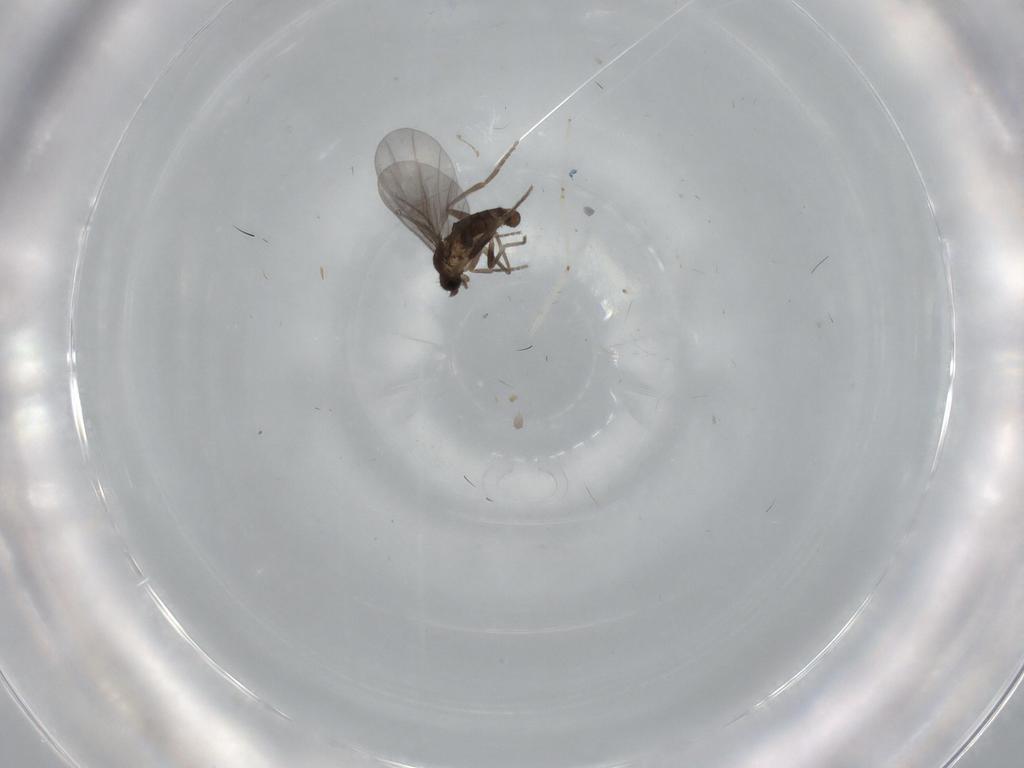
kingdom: Animalia
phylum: Arthropoda
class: Insecta
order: Diptera
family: Phoridae
